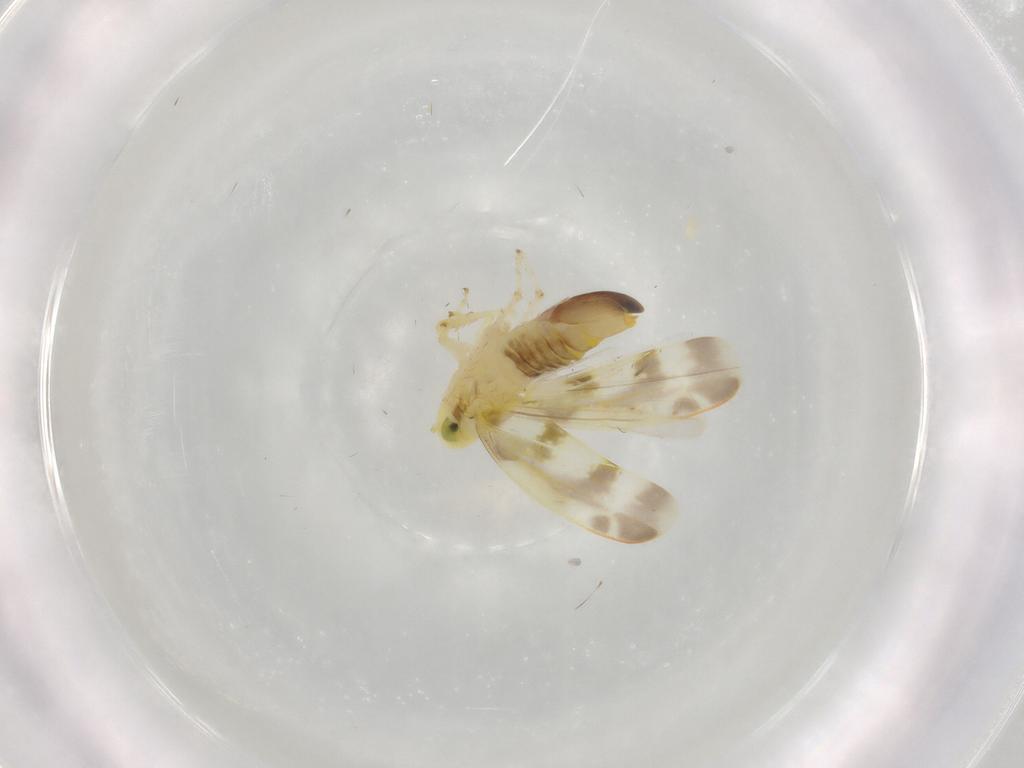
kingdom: Animalia
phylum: Arthropoda
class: Insecta
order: Hemiptera
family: Cicadellidae
